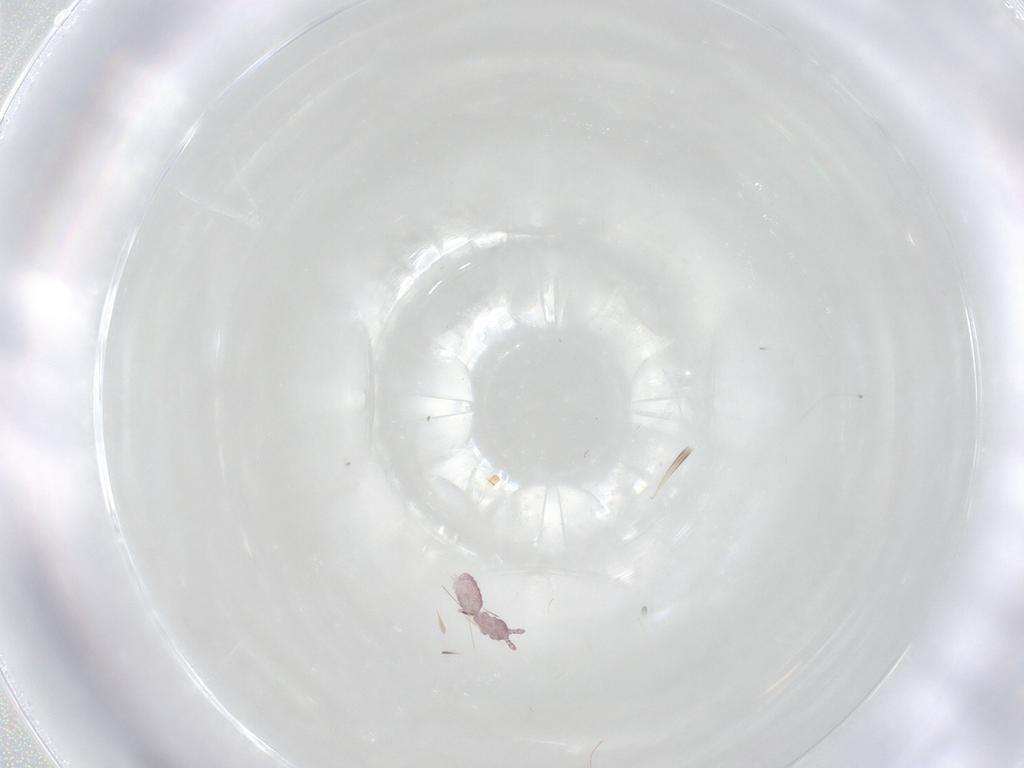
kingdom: Animalia
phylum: Arthropoda
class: Collembola
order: Poduromorpha
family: Hypogastruridae
